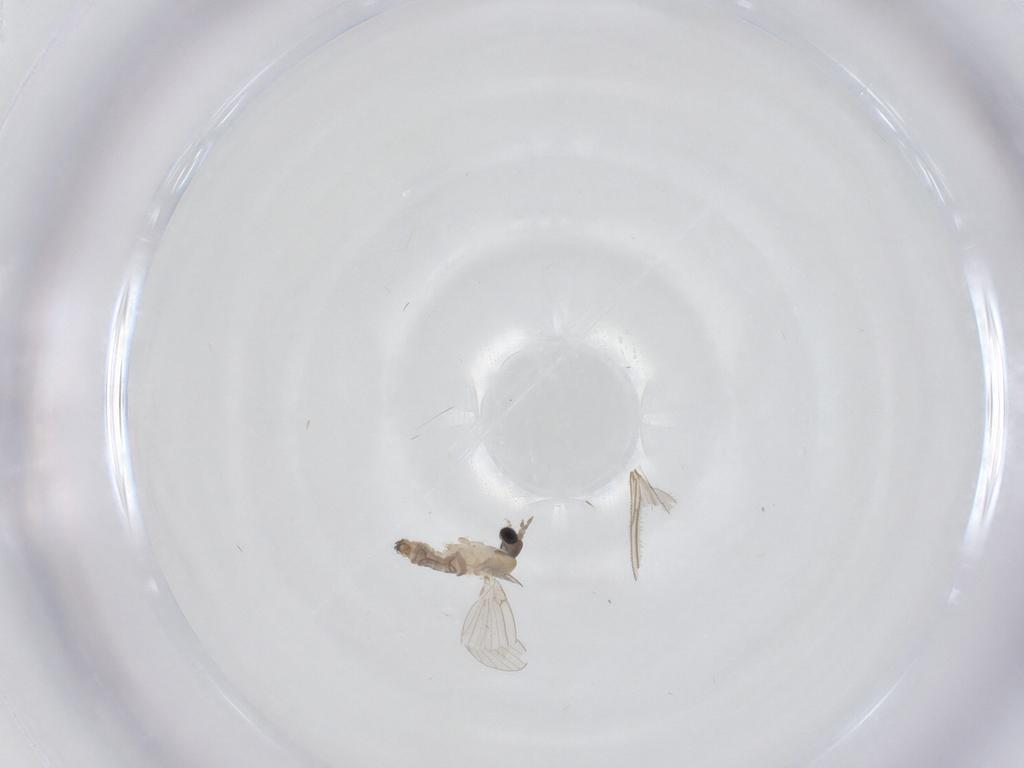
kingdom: Animalia
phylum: Arthropoda
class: Insecta
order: Diptera
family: Psychodidae
